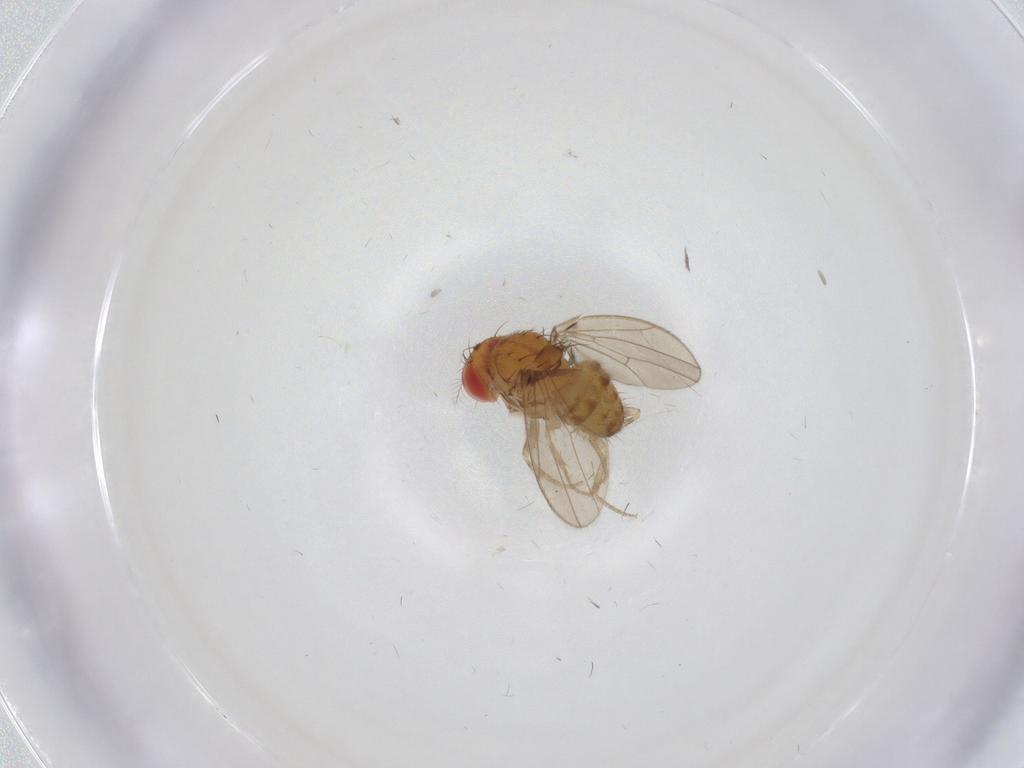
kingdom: Animalia
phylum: Arthropoda
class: Insecta
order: Diptera
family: Drosophilidae
